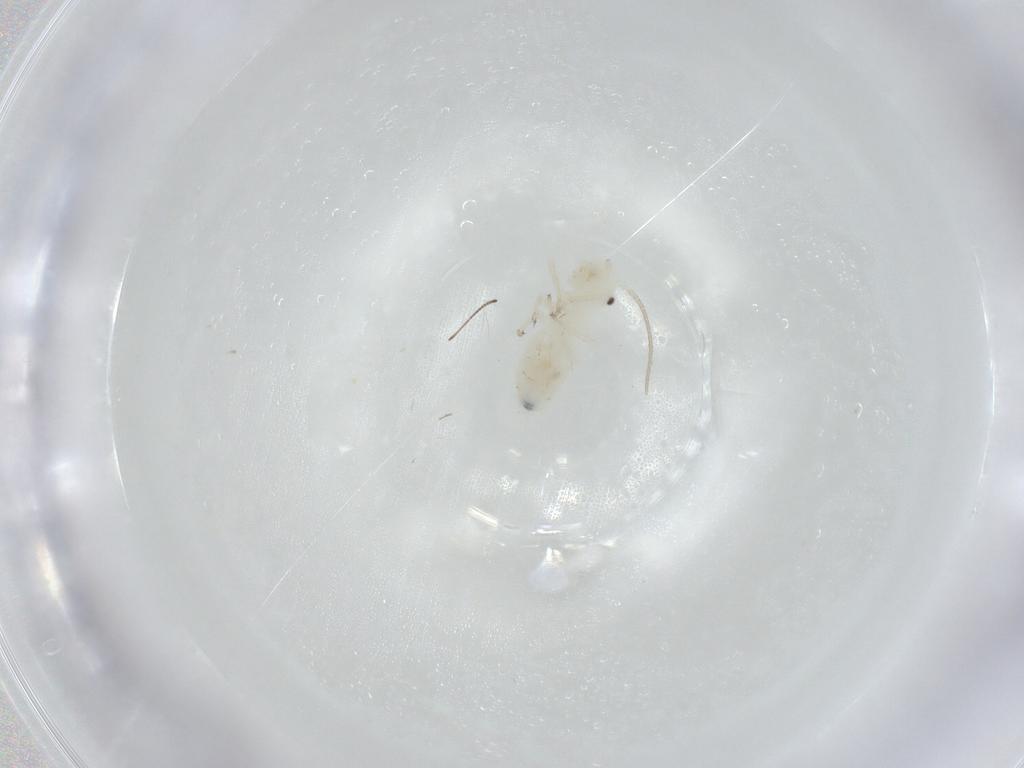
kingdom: Animalia
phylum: Arthropoda
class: Insecta
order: Psocodea
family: Caeciliusidae
